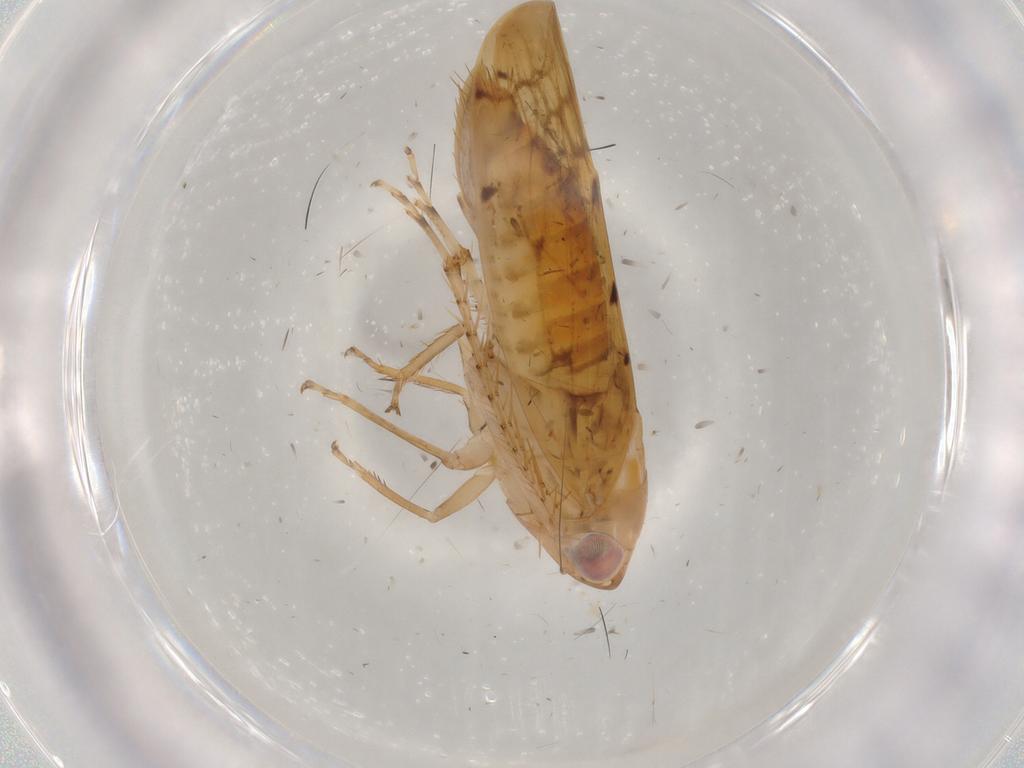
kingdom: Animalia
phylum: Arthropoda
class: Insecta
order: Hemiptera
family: Cicadellidae
